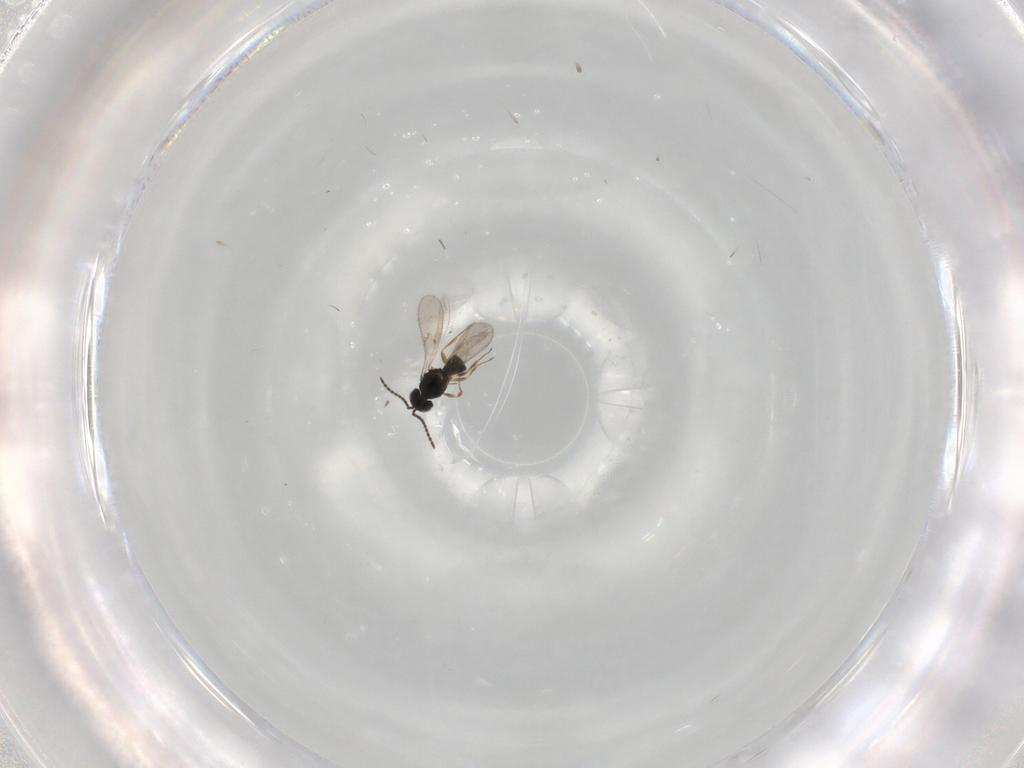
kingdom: Animalia
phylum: Arthropoda
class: Insecta
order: Hymenoptera
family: Scelionidae
